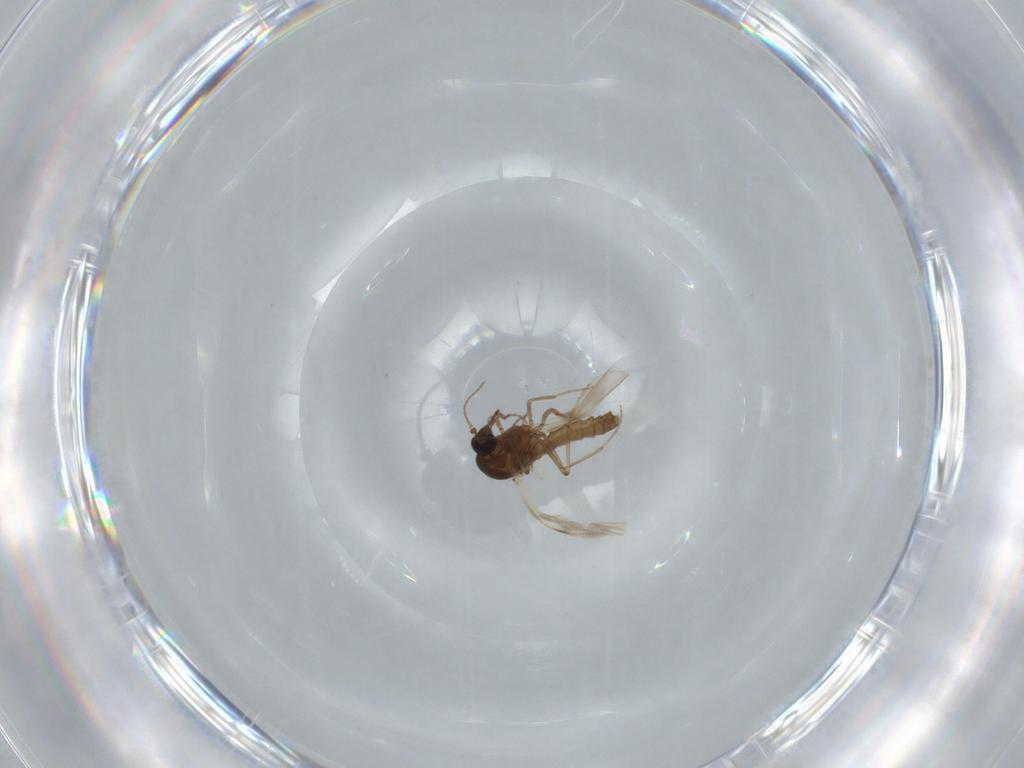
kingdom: Animalia
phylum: Arthropoda
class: Insecta
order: Diptera
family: Ceratopogonidae
